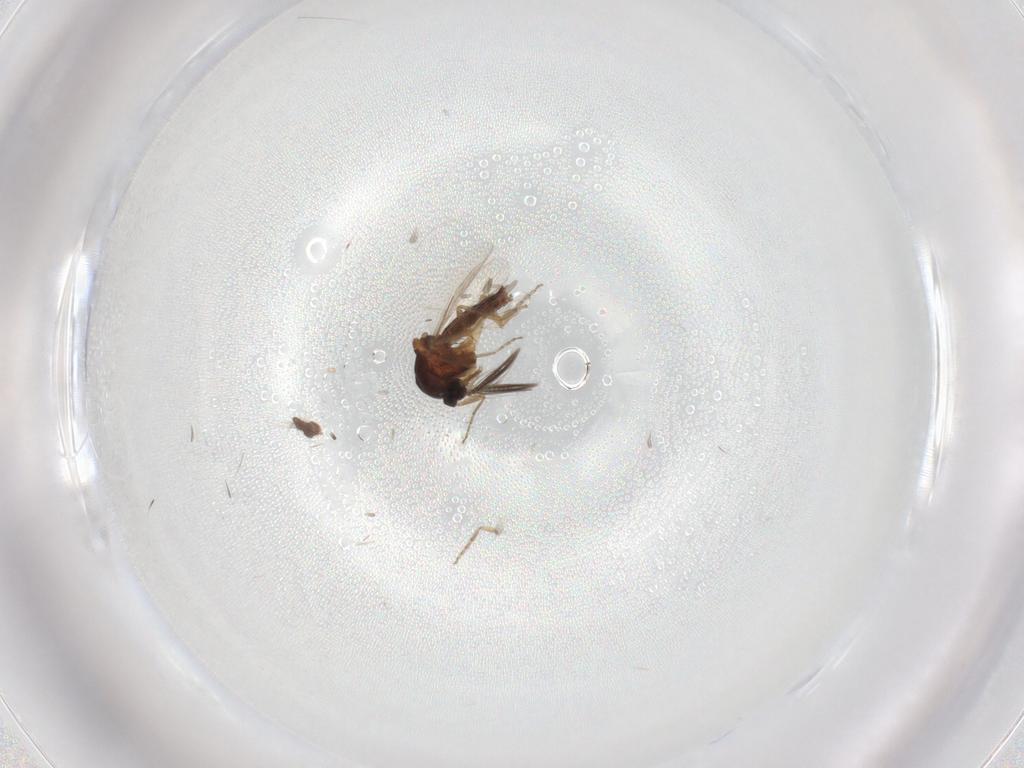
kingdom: Animalia
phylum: Arthropoda
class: Insecta
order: Diptera
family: Ceratopogonidae
